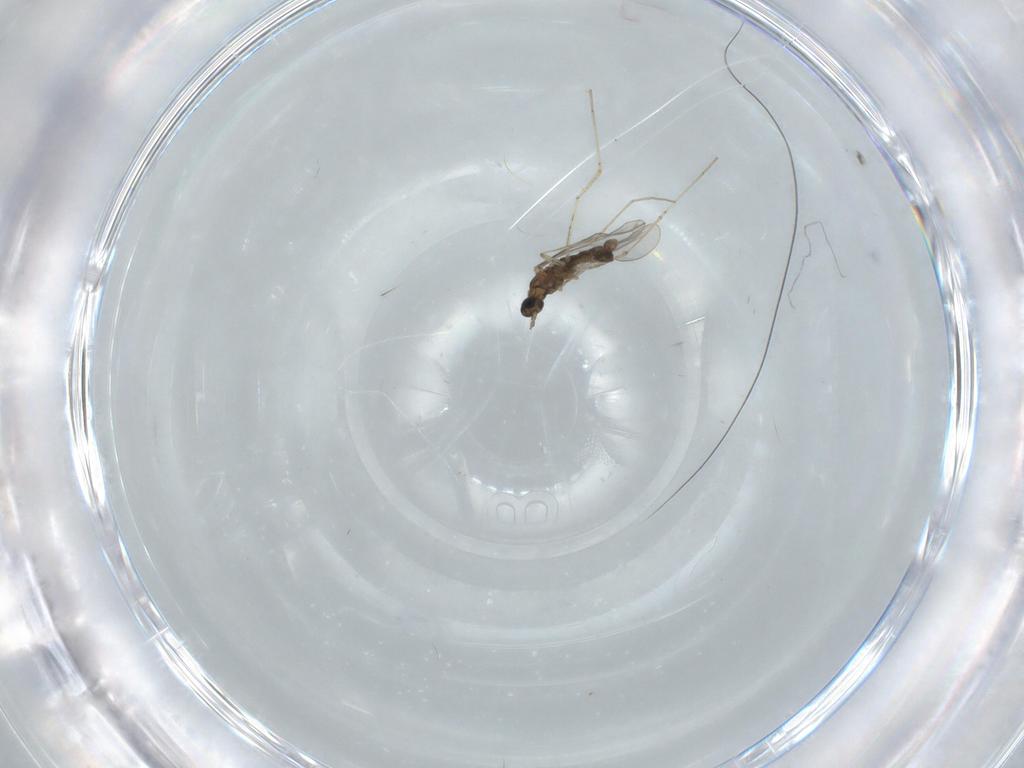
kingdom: Animalia
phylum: Arthropoda
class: Insecta
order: Diptera
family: Cecidomyiidae
